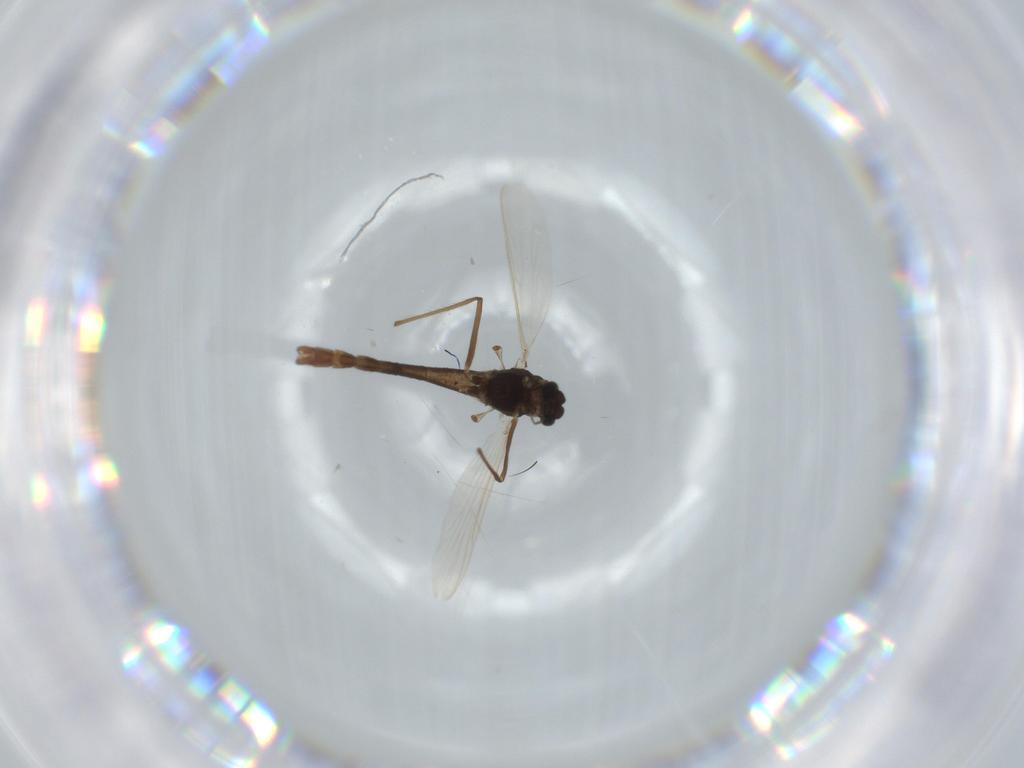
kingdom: Animalia
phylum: Arthropoda
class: Insecta
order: Diptera
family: Chironomidae
